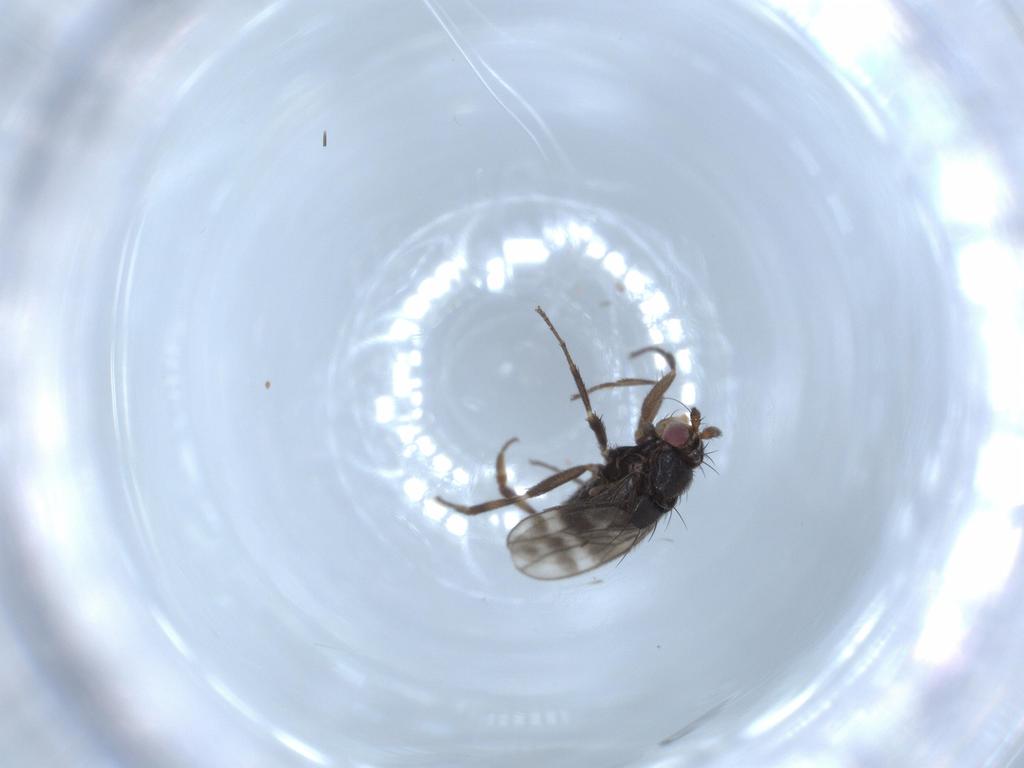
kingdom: Animalia
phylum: Arthropoda
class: Insecta
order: Diptera
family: Sphaeroceridae
